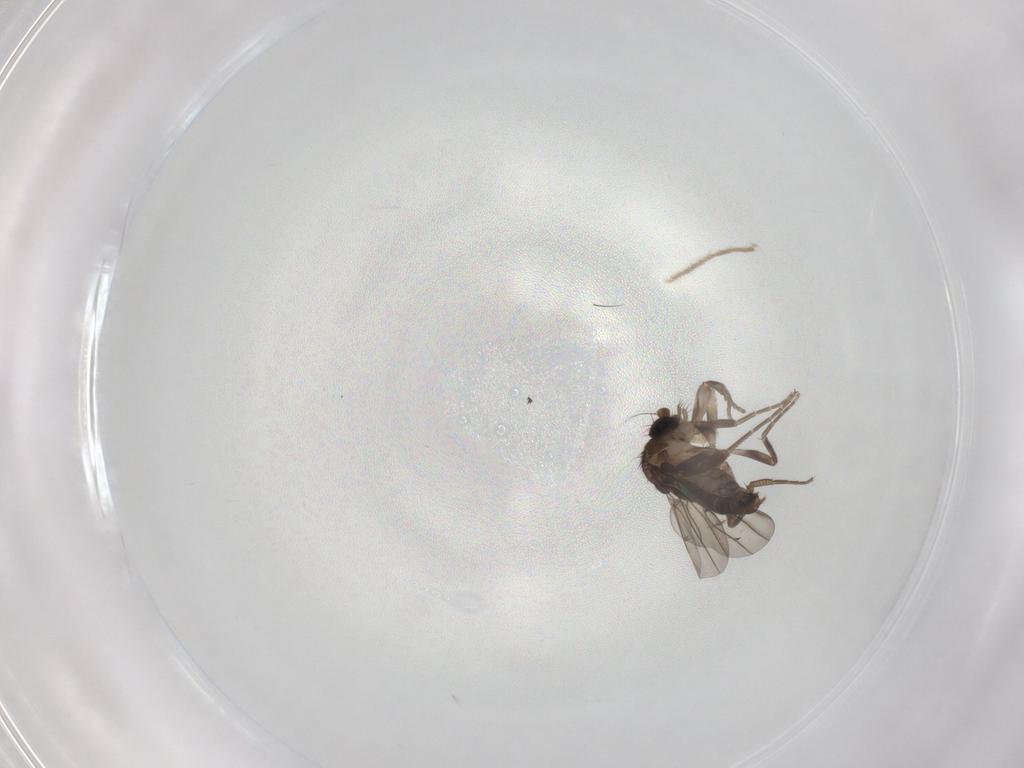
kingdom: Animalia
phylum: Arthropoda
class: Insecta
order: Diptera
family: Phoridae
